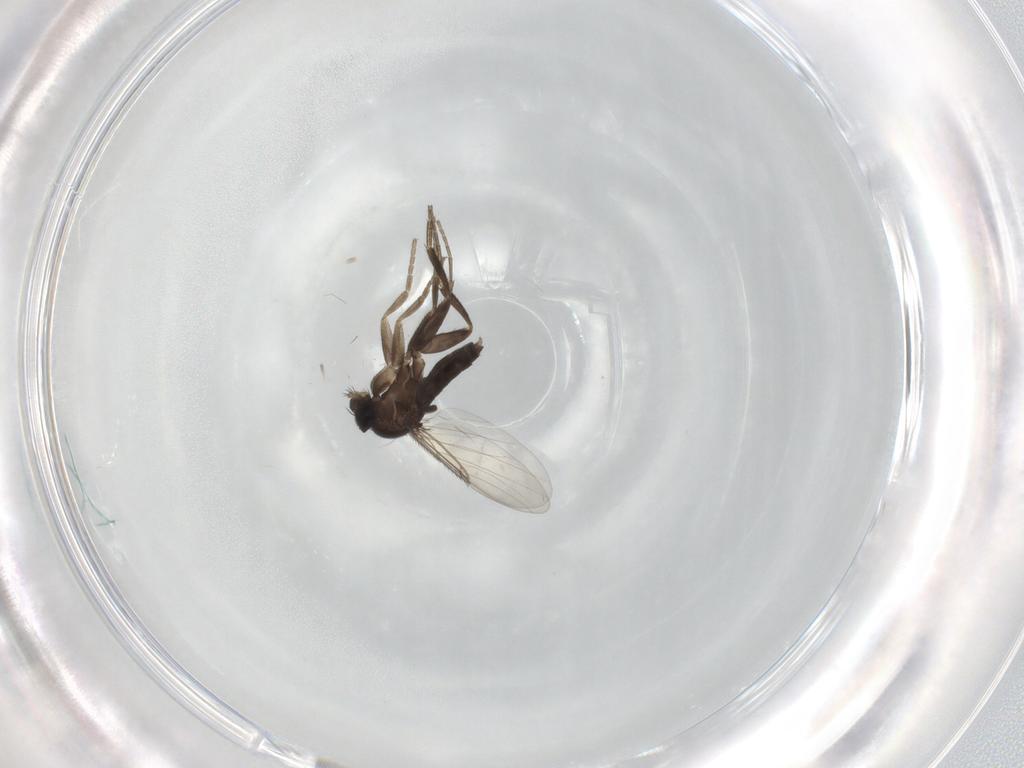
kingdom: Animalia
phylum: Arthropoda
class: Insecta
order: Diptera
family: Phoridae
